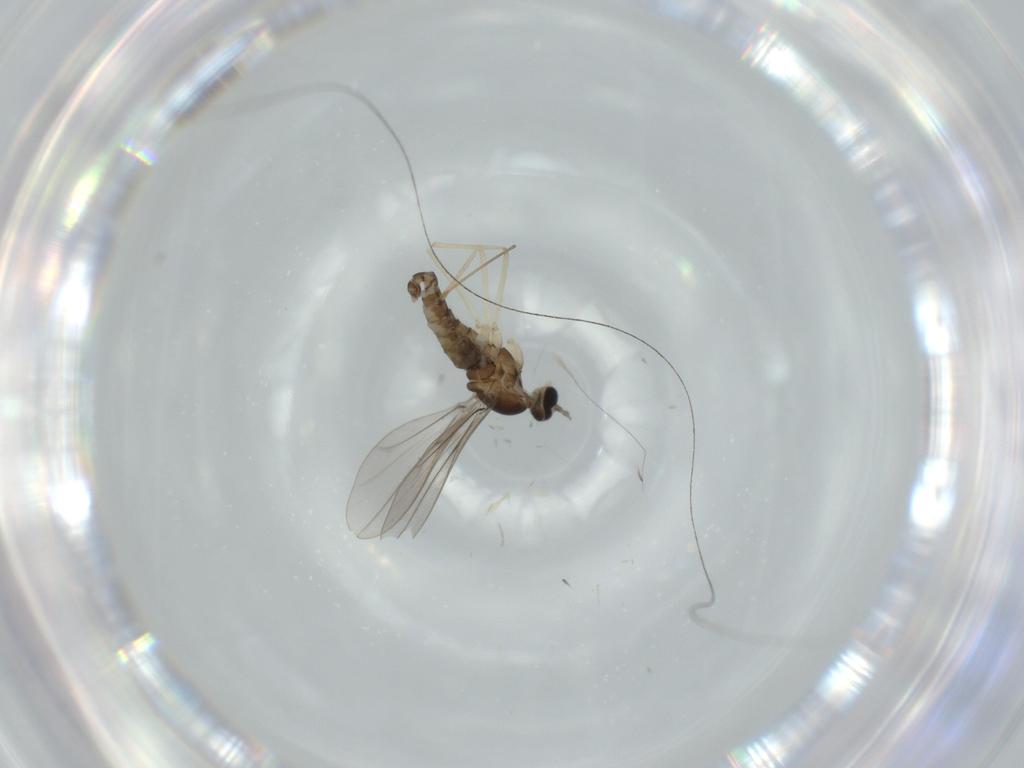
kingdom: Animalia
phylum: Arthropoda
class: Insecta
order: Diptera
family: Cecidomyiidae
